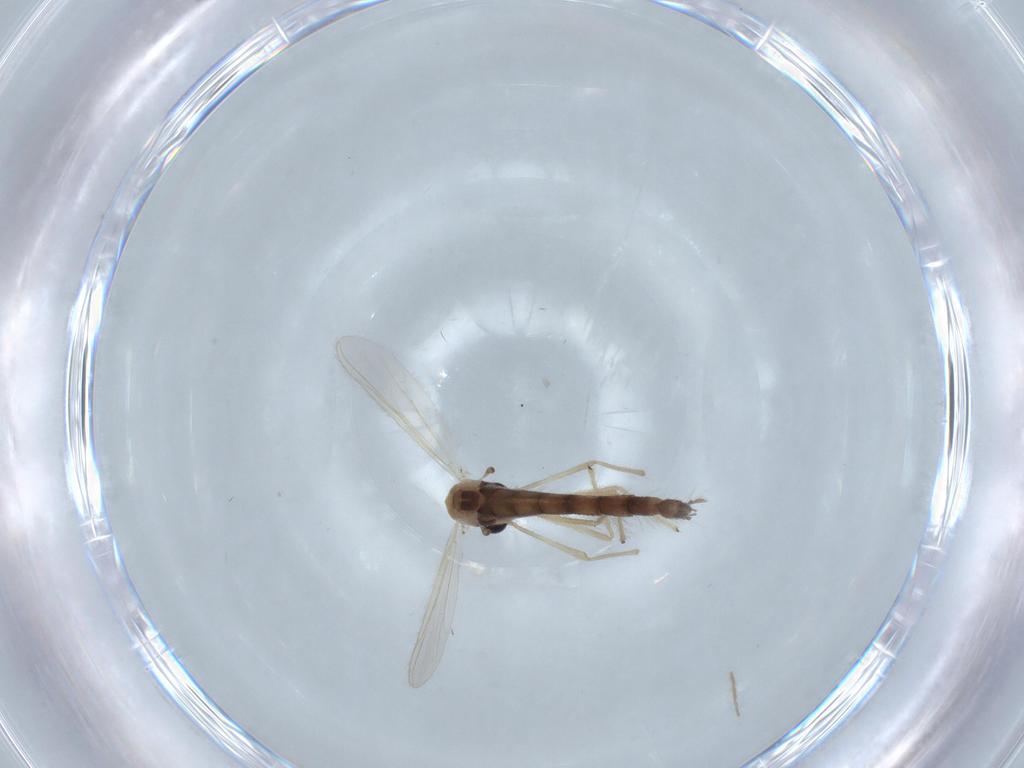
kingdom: Animalia
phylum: Arthropoda
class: Insecta
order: Diptera
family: Chironomidae
